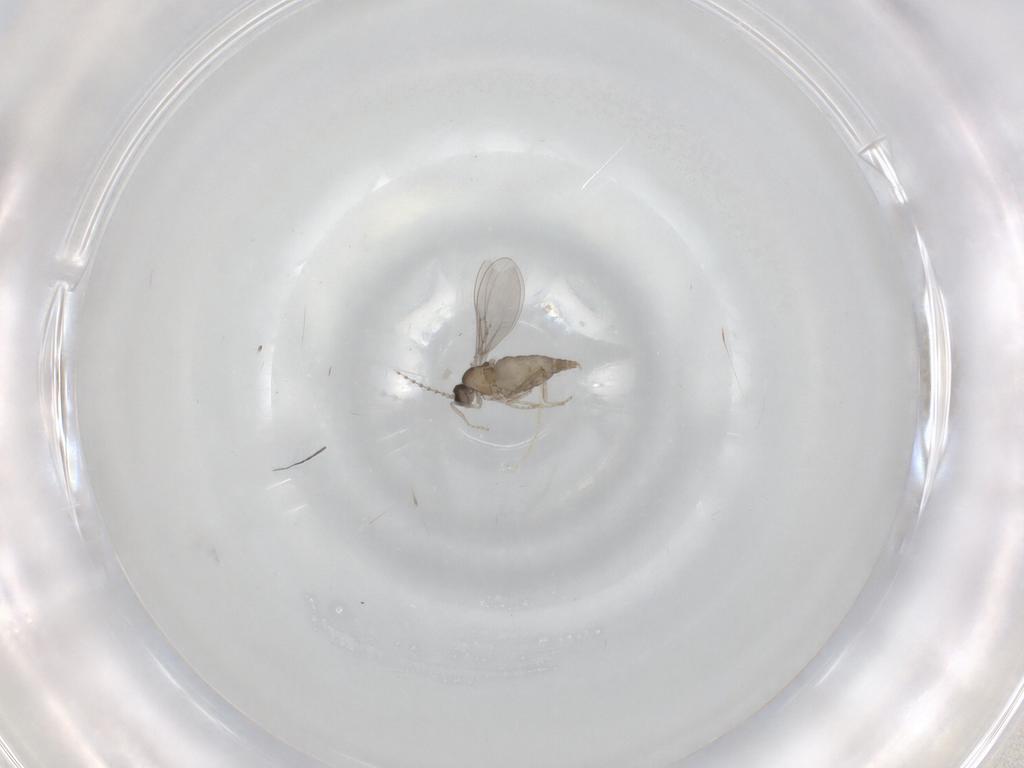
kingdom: Animalia
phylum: Arthropoda
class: Insecta
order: Diptera
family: Cecidomyiidae
